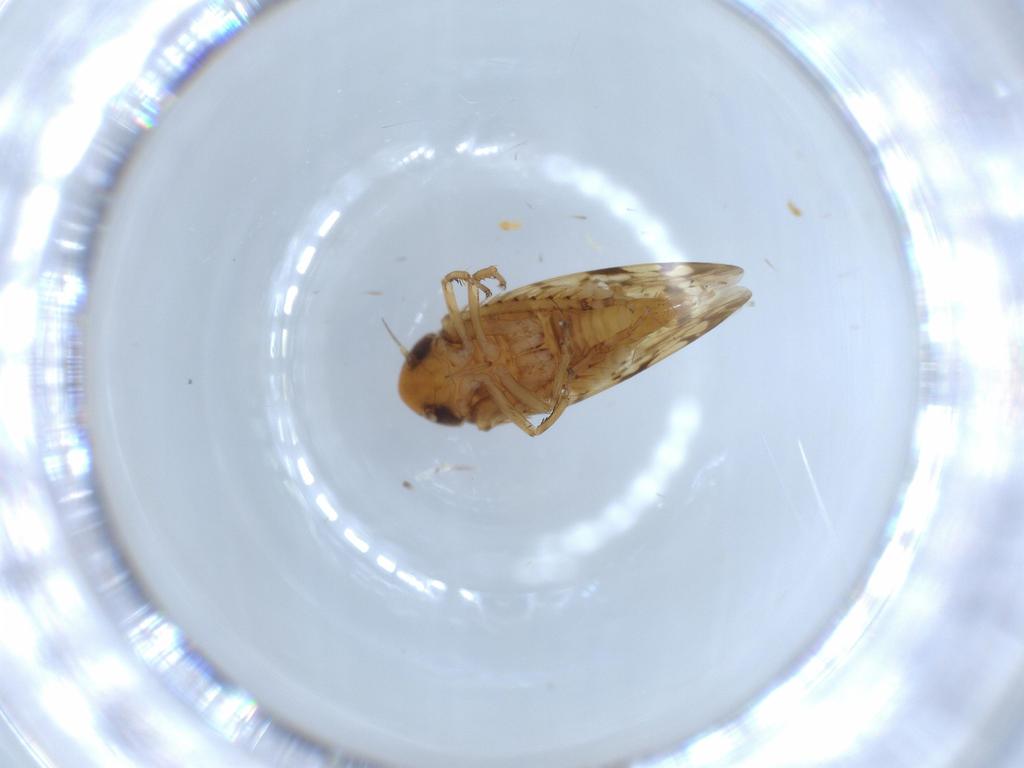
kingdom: Animalia
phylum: Arthropoda
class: Insecta
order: Hemiptera
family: Cicadellidae
